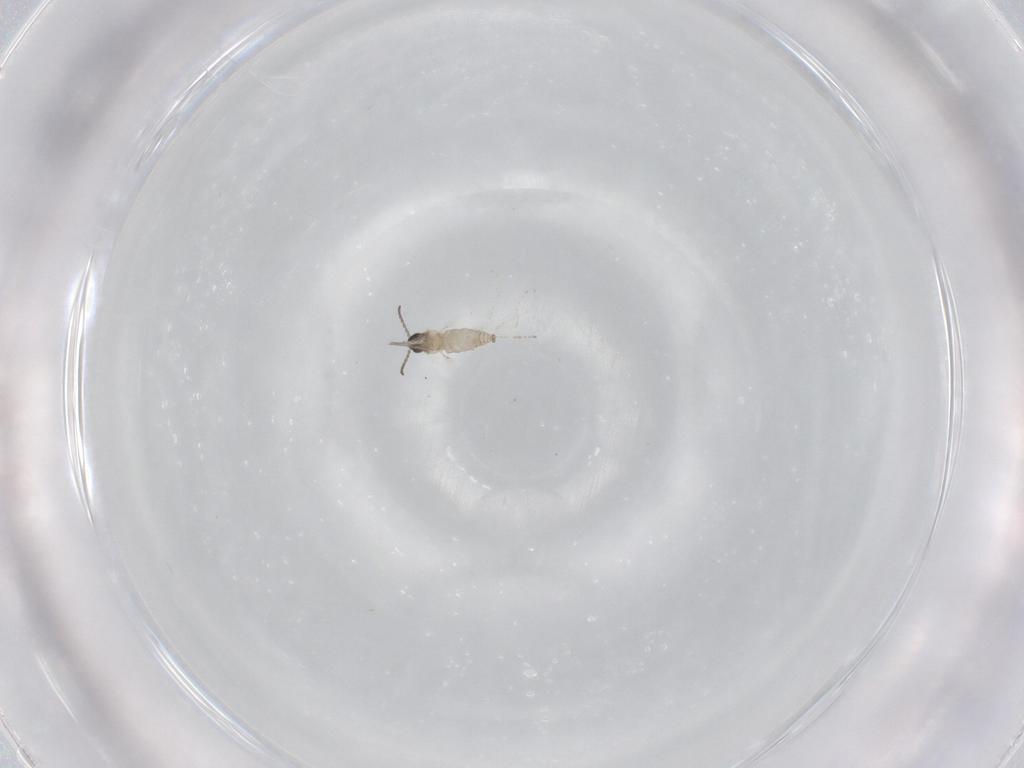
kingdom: Animalia
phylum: Arthropoda
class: Insecta
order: Diptera
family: Cecidomyiidae
